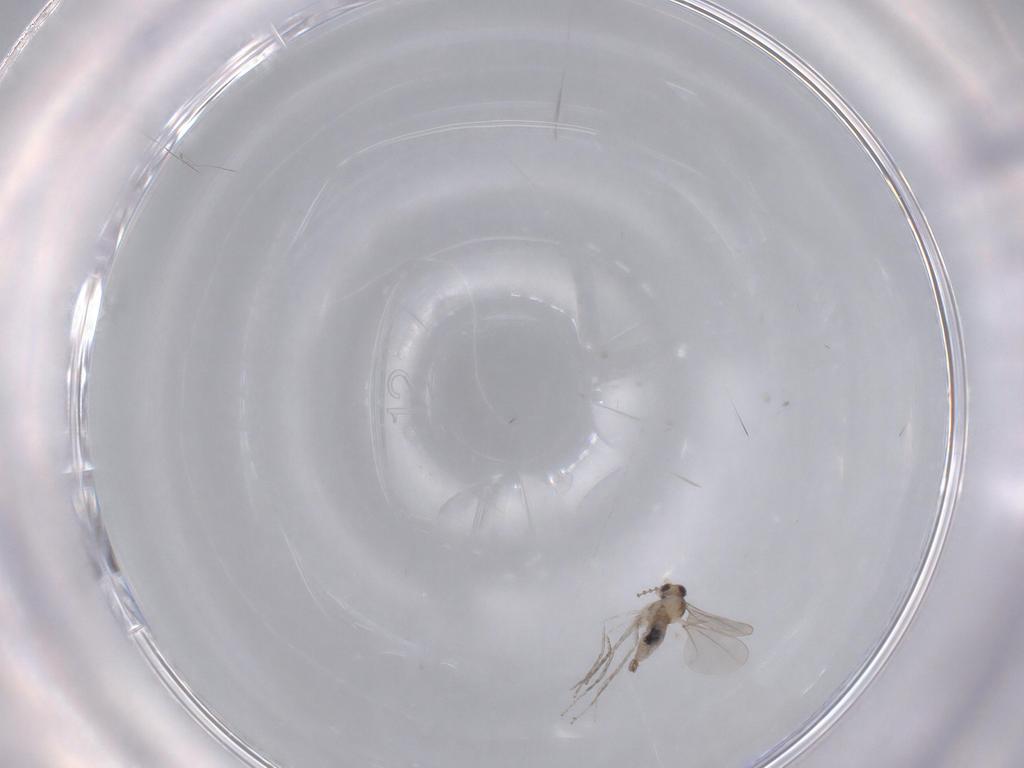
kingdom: Animalia
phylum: Arthropoda
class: Insecta
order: Diptera
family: Cecidomyiidae
